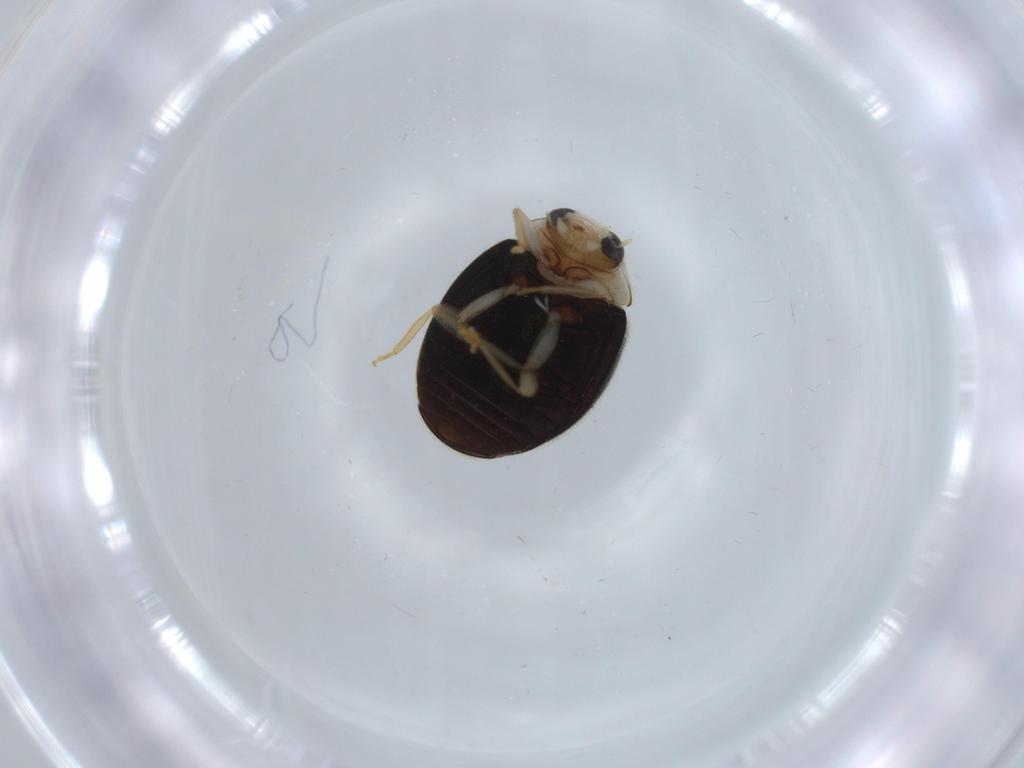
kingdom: Animalia
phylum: Arthropoda
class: Insecta
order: Coleoptera
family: Coccinellidae
